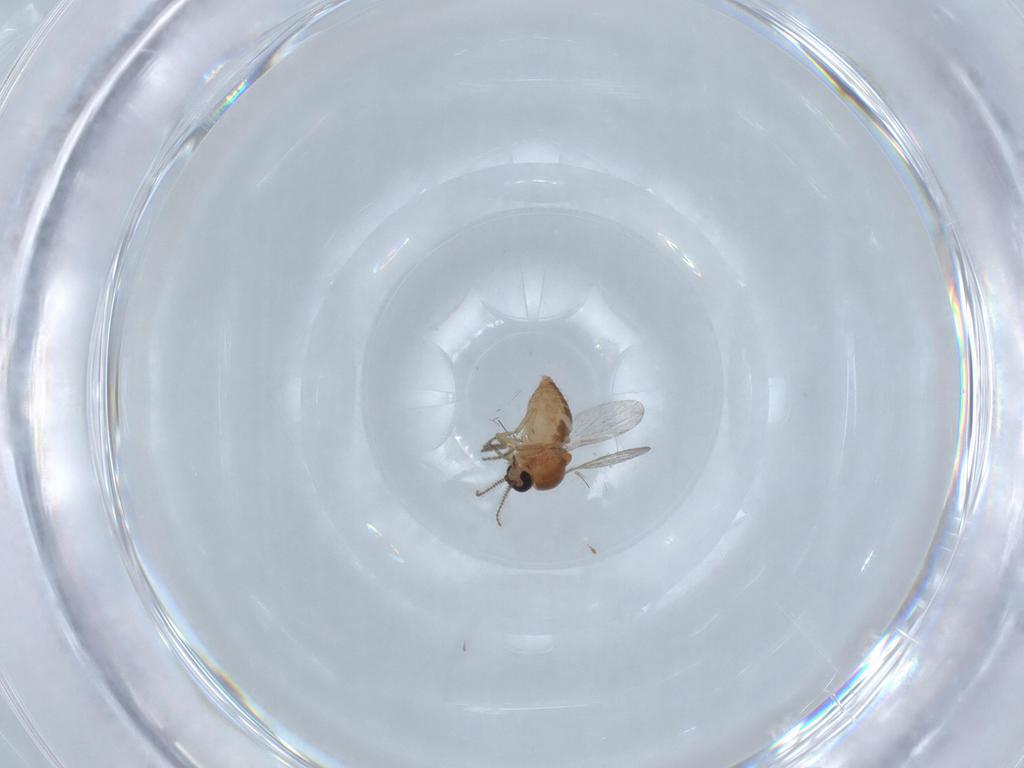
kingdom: Animalia
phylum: Arthropoda
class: Insecta
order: Diptera
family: Ceratopogonidae
